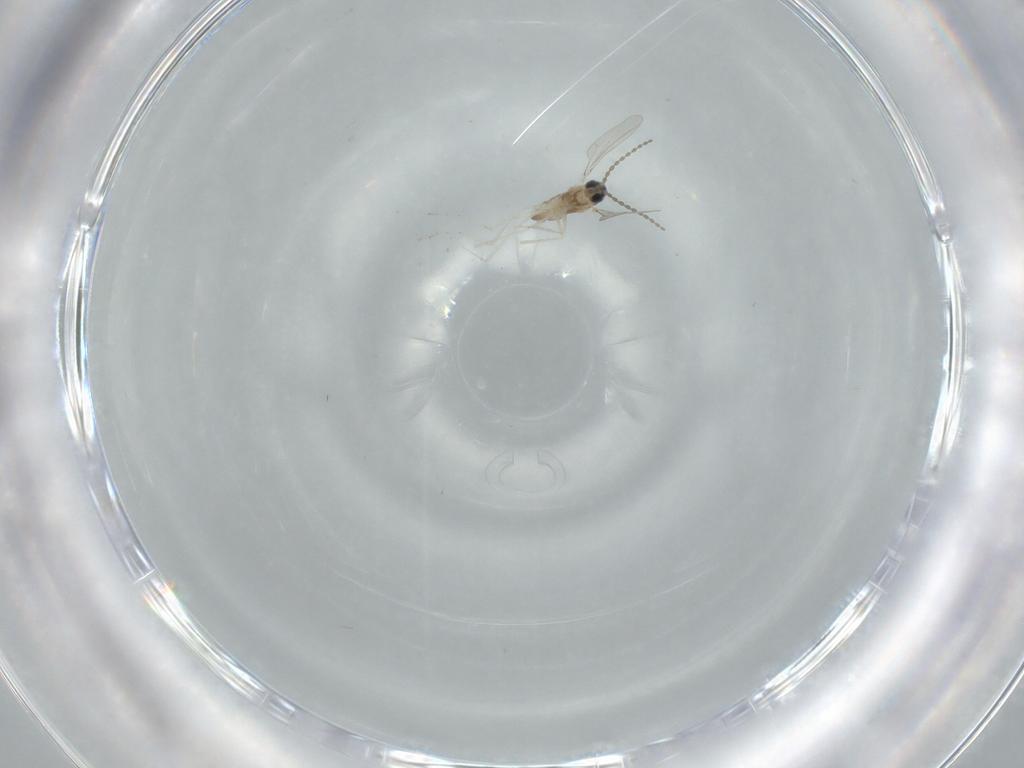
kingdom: Animalia
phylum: Arthropoda
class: Insecta
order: Diptera
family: Cecidomyiidae
